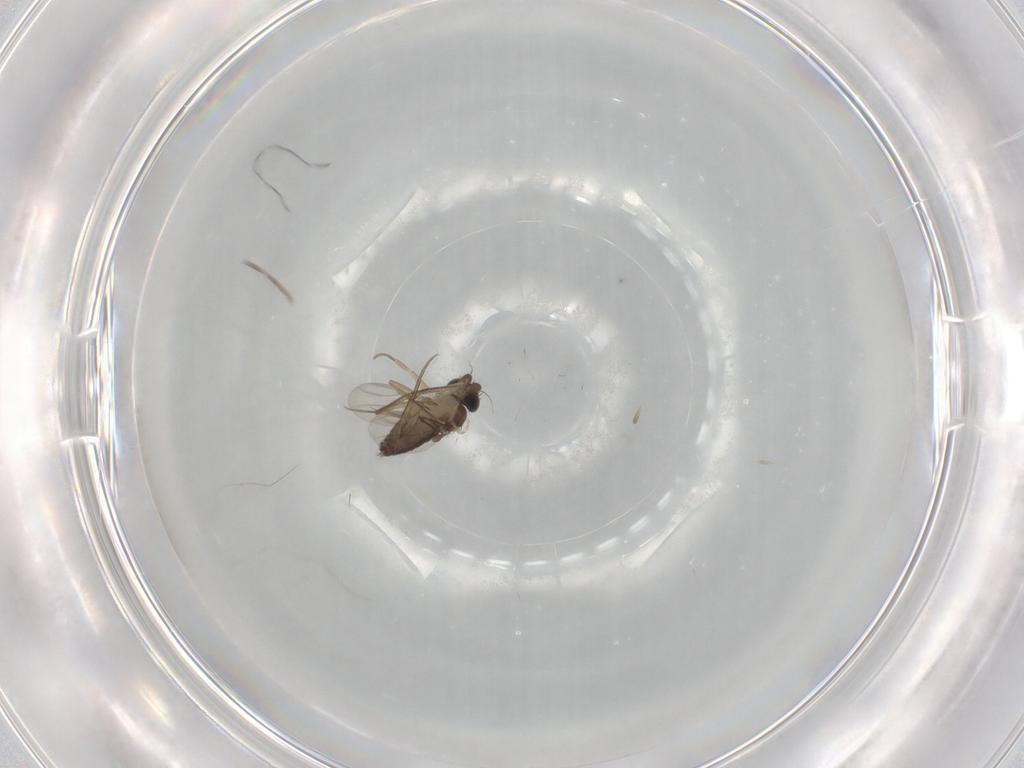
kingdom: Animalia
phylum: Arthropoda
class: Insecta
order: Diptera
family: Phoridae
